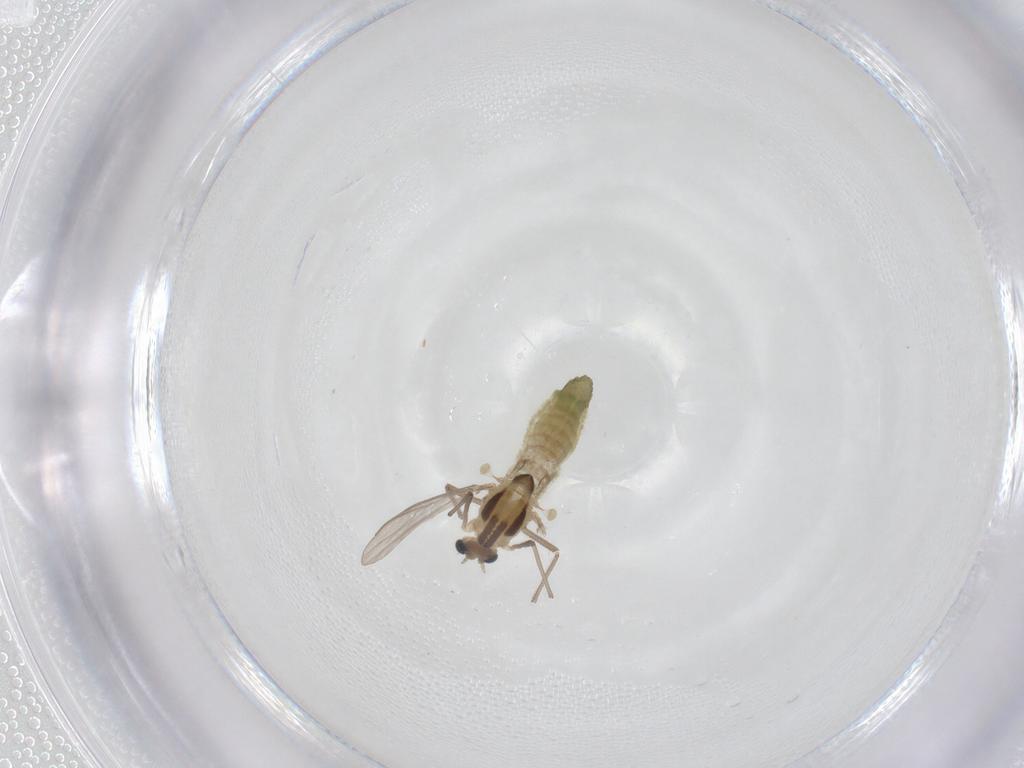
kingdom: Animalia
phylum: Arthropoda
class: Insecta
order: Diptera
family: Chironomidae
